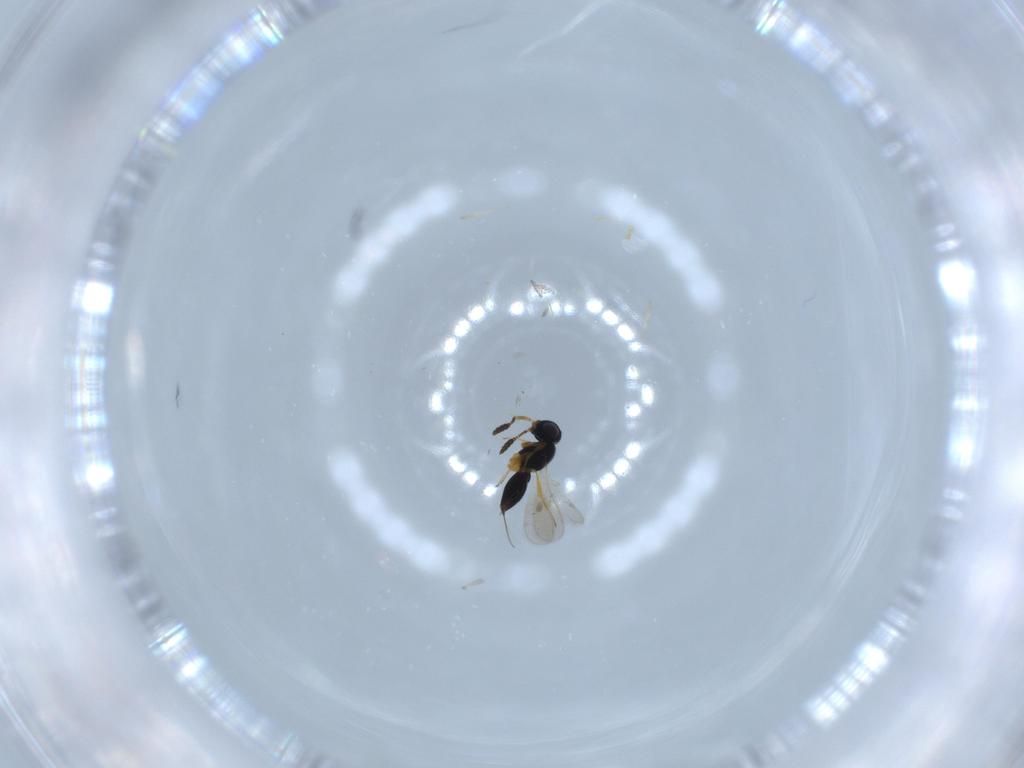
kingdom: Animalia
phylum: Arthropoda
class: Insecta
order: Hymenoptera
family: Scelionidae
